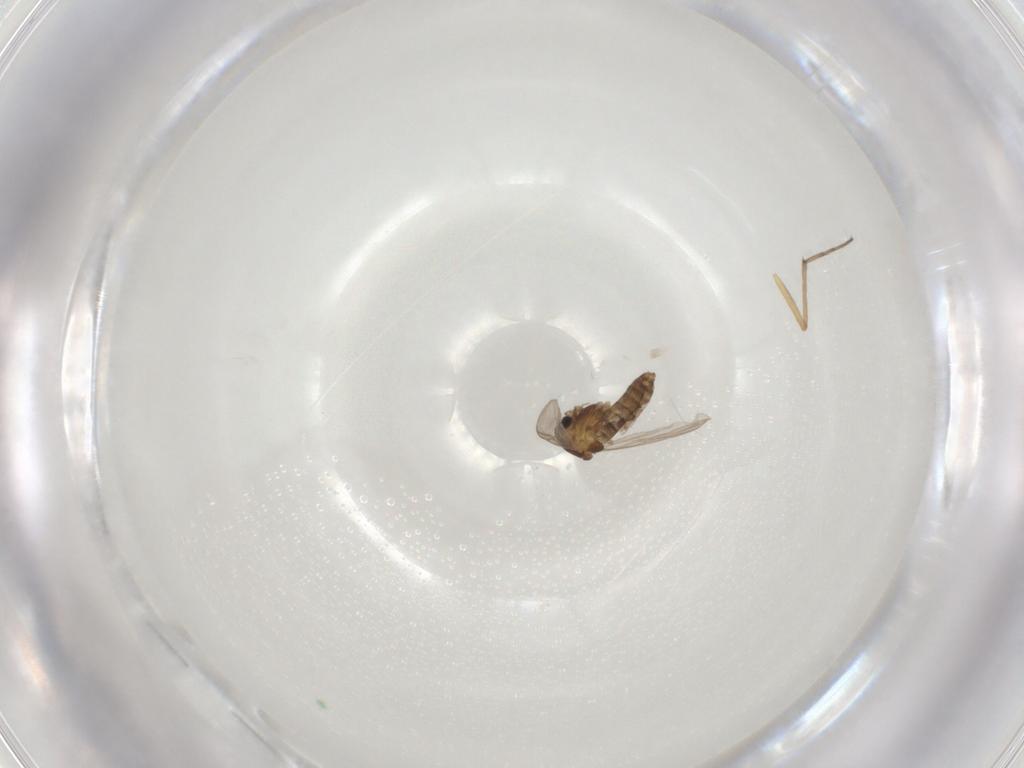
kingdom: Animalia
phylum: Arthropoda
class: Insecta
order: Diptera
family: Chironomidae
